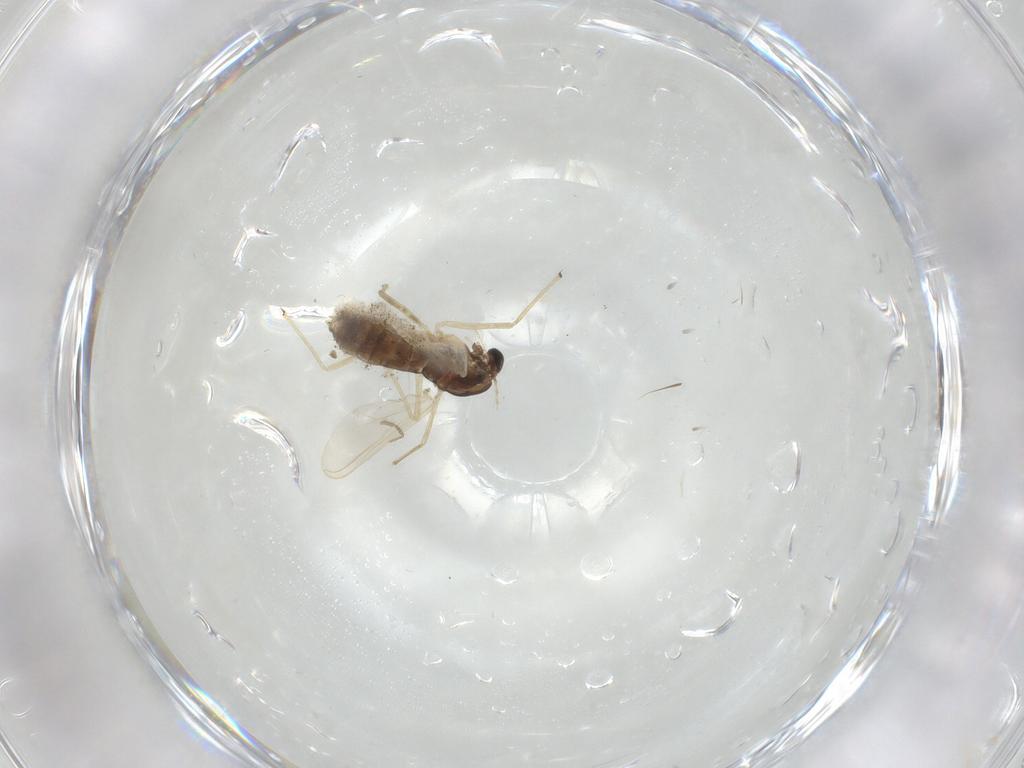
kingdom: Animalia
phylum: Arthropoda
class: Insecta
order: Diptera
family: Chironomidae
